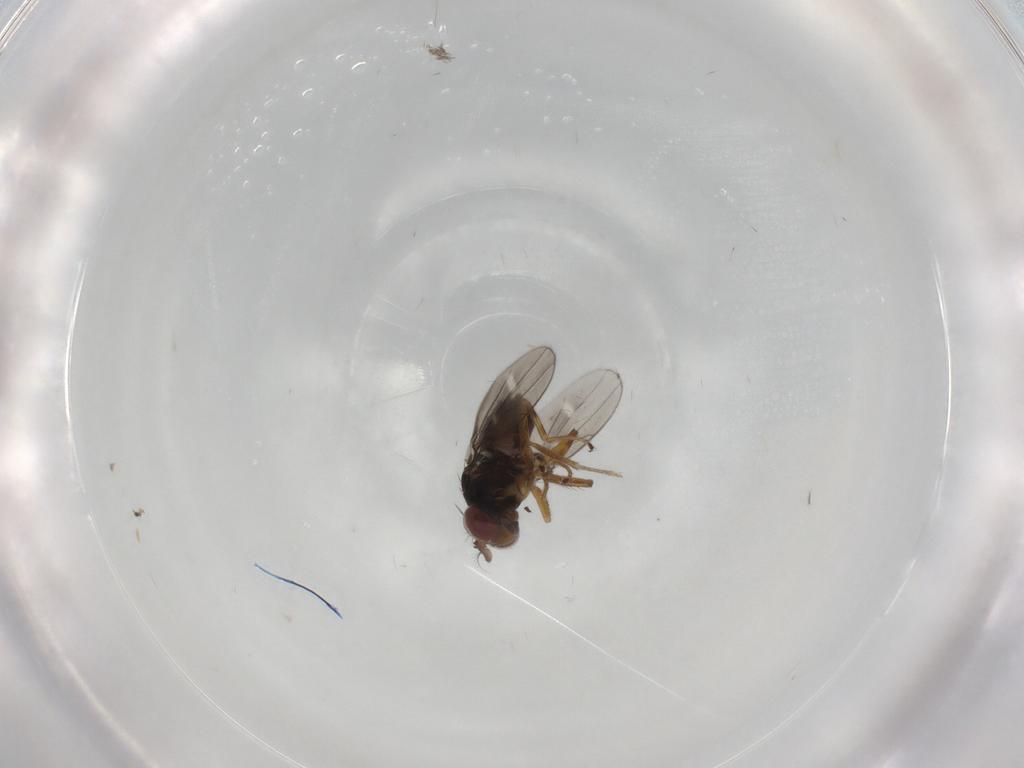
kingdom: Animalia
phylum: Arthropoda
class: Insecta
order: Diptera
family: Ephydridae
